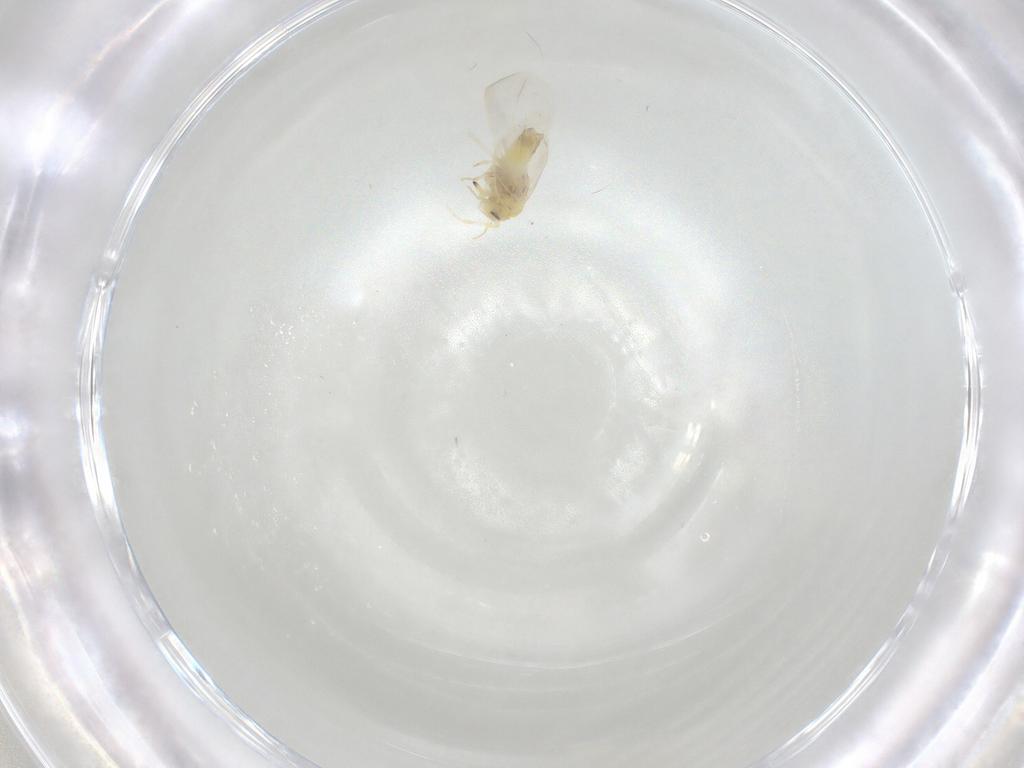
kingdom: Animalia
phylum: Arthropoda
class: Insecta
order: Hemiptera
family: Aleyrodidae
